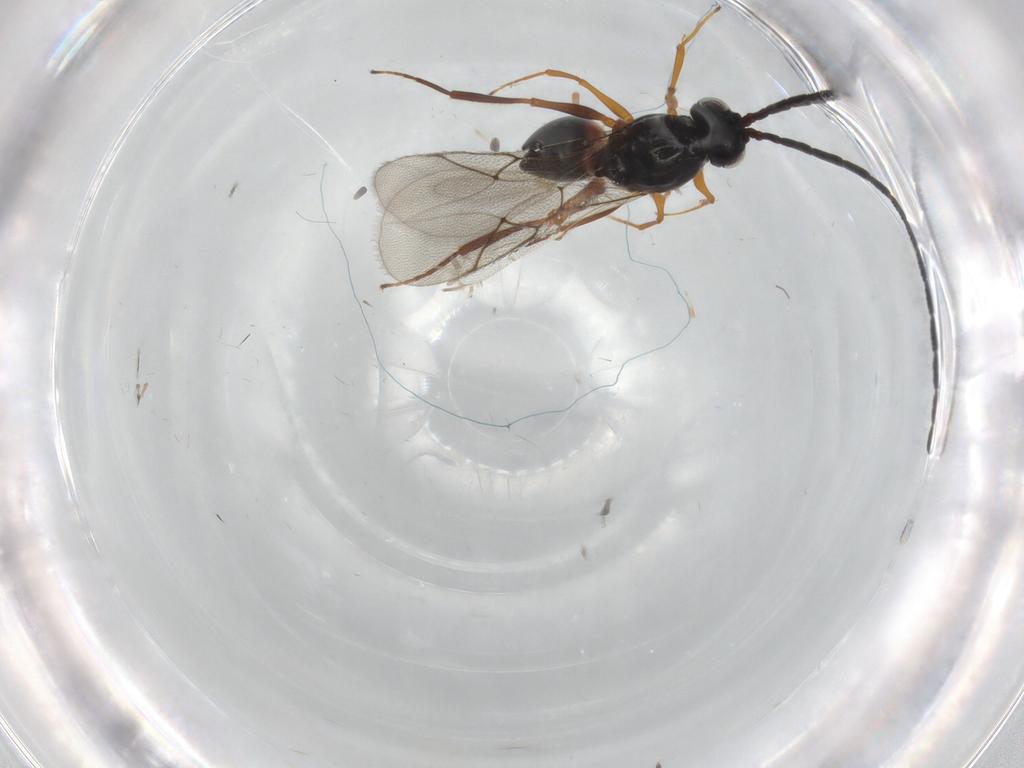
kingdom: Animalia
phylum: Arthropoda
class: Insecta
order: Hymenoptera
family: Figitidae
